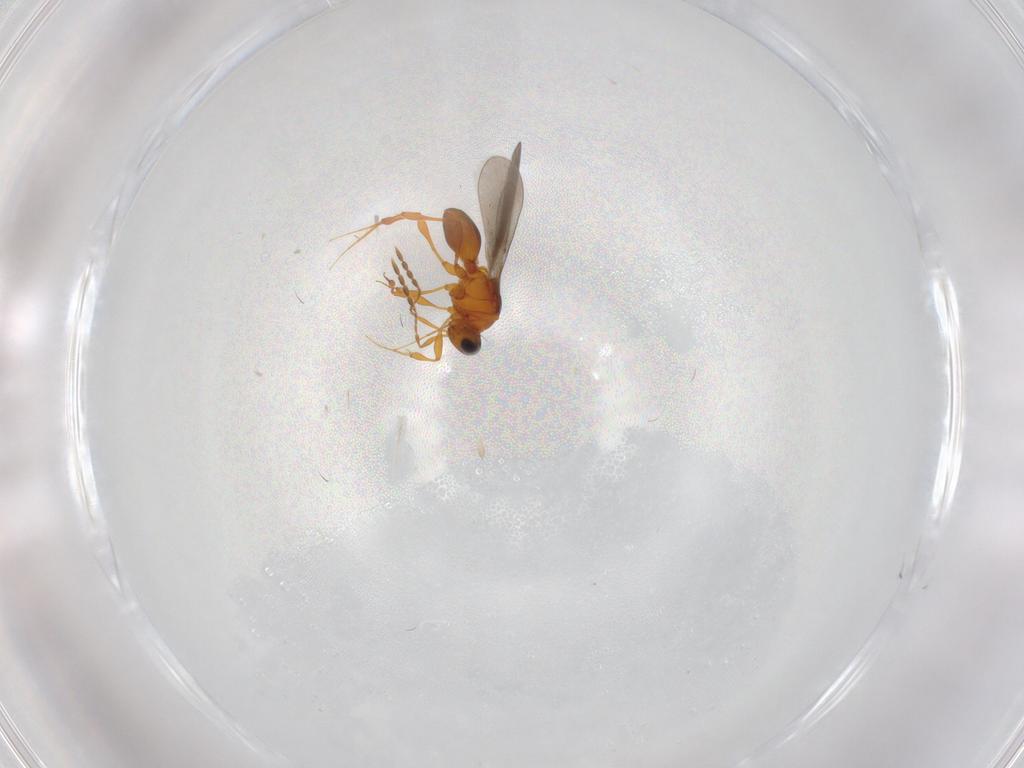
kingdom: Animalia
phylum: Arthropoda
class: Insecta
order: Hymenoptera
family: Platygastridae
